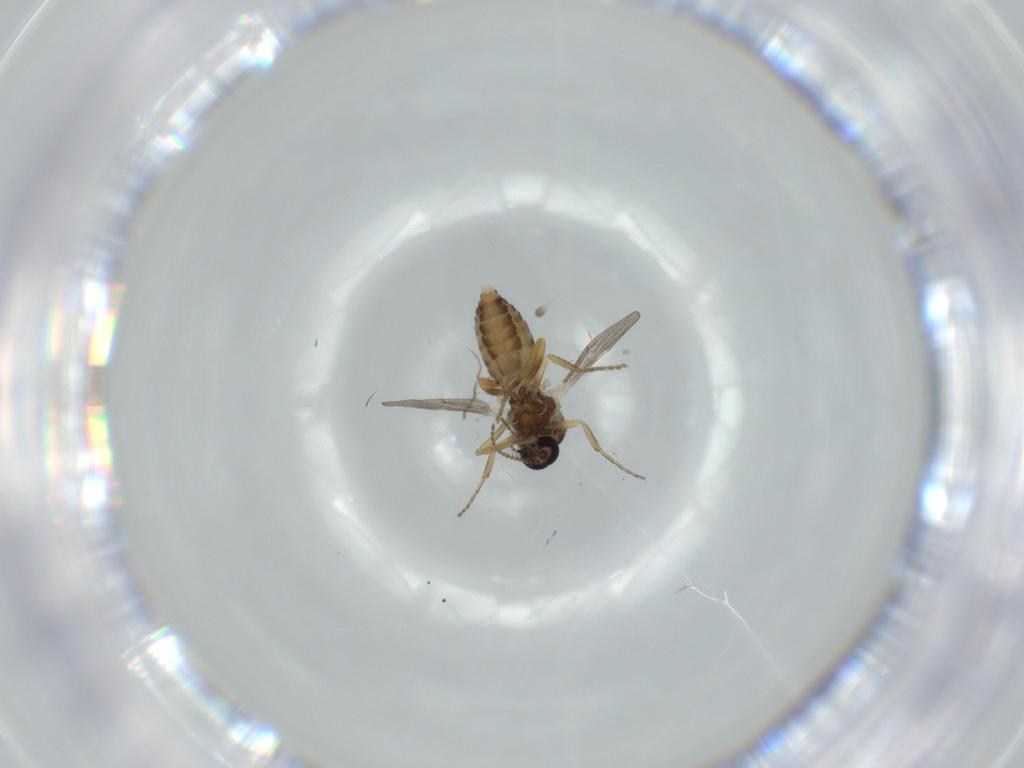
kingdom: Animalia
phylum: Arthropoda
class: Insecta
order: Diptera
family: Ceratopogonidae
